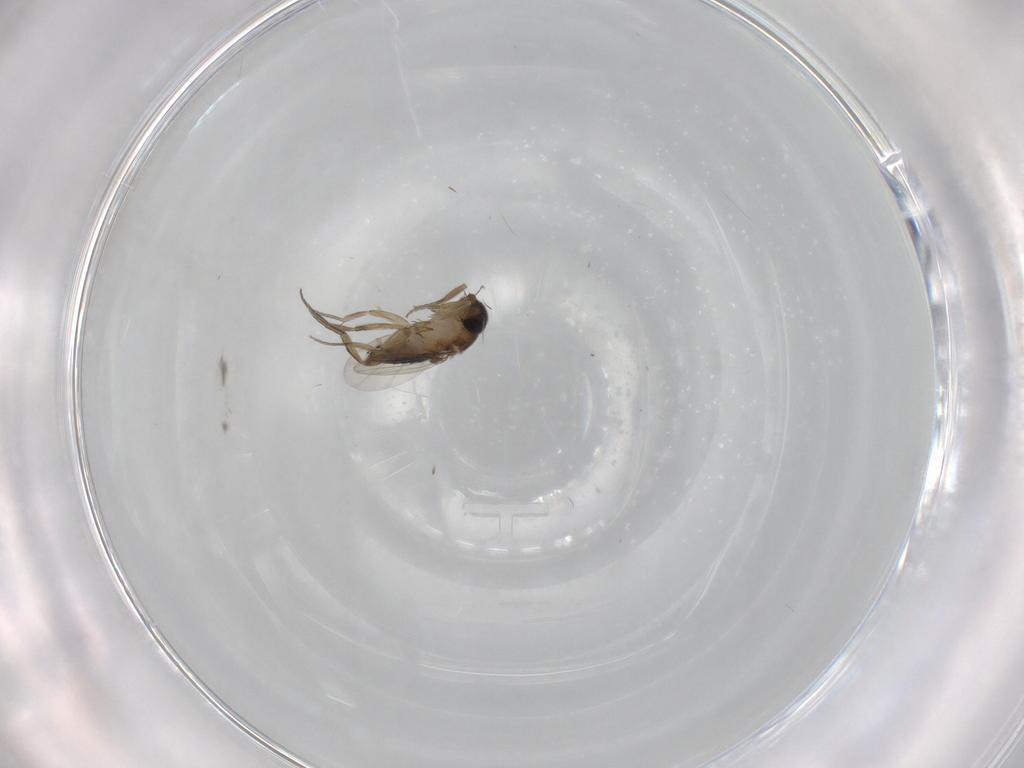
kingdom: Animalia
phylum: Arthropoda
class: Insecta
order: Diptera
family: Phoridae
